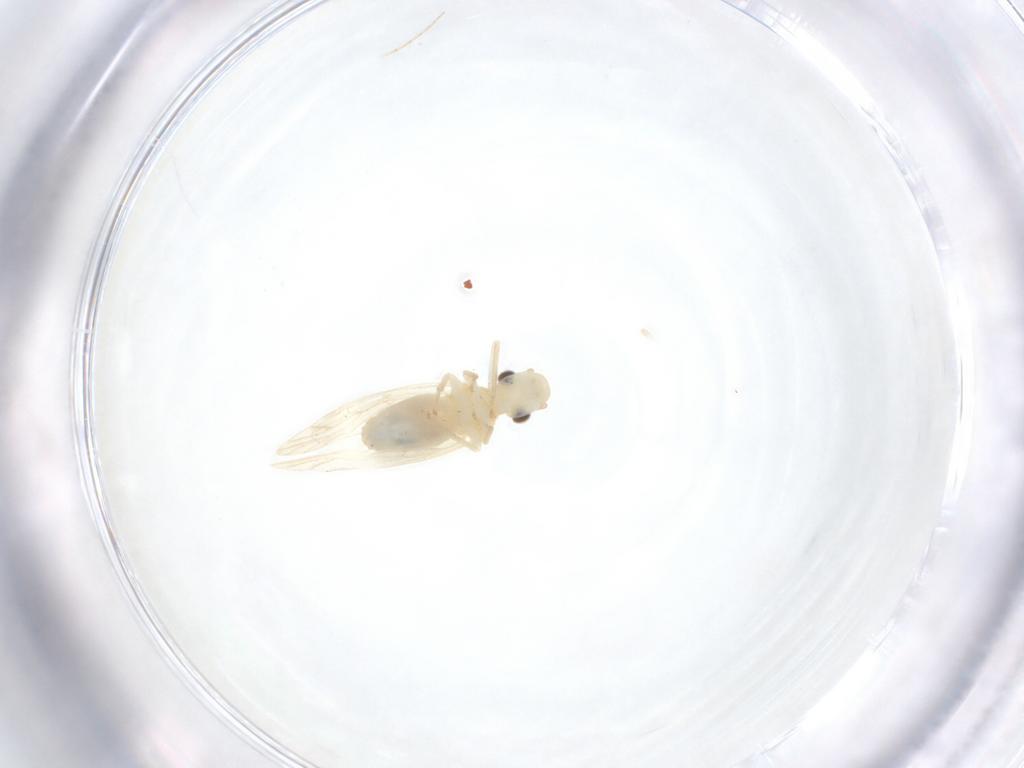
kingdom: Animalia
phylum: Arthropoda
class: Insecta
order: Psocodea
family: Caeciliusidae
